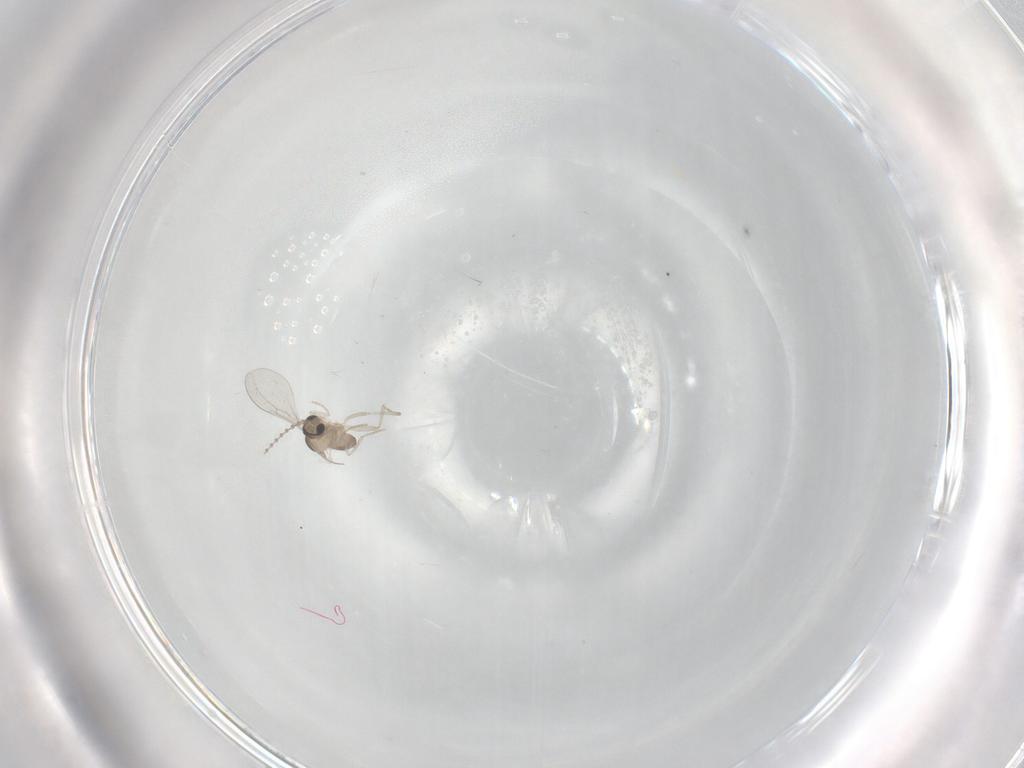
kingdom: Animalia
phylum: Arthropoda
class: Insecta
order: Diptera
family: Cecidomyiidae
